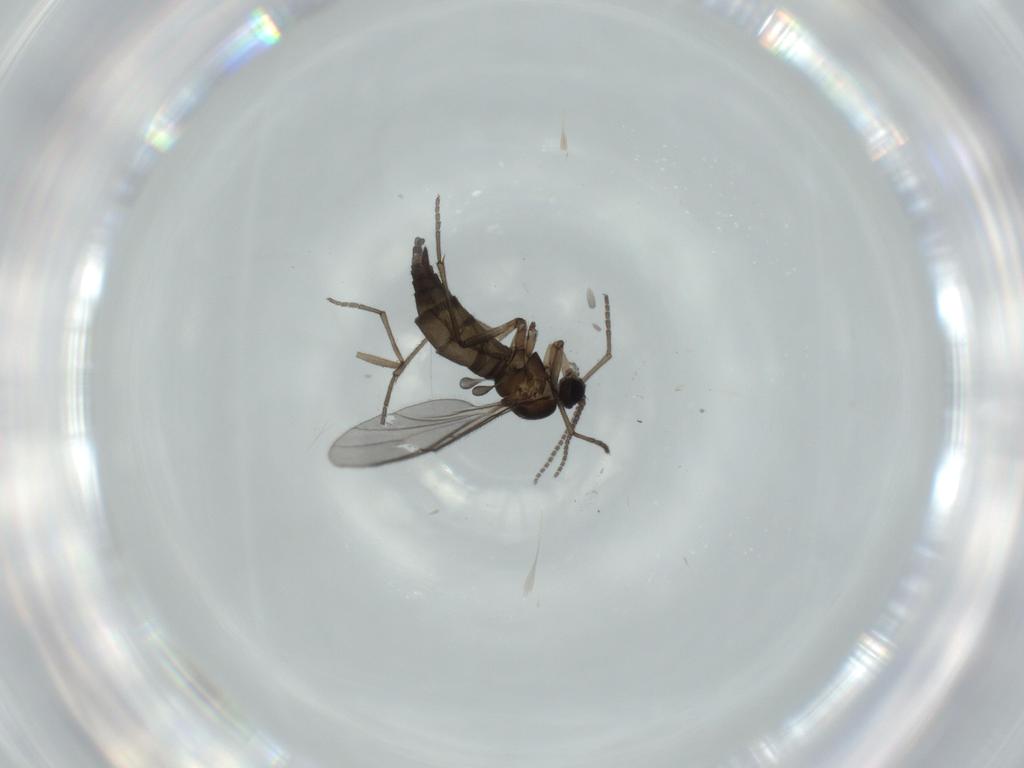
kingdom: Animalia
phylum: Arthropoda
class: Insecta
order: Diptera
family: Sciaridae
